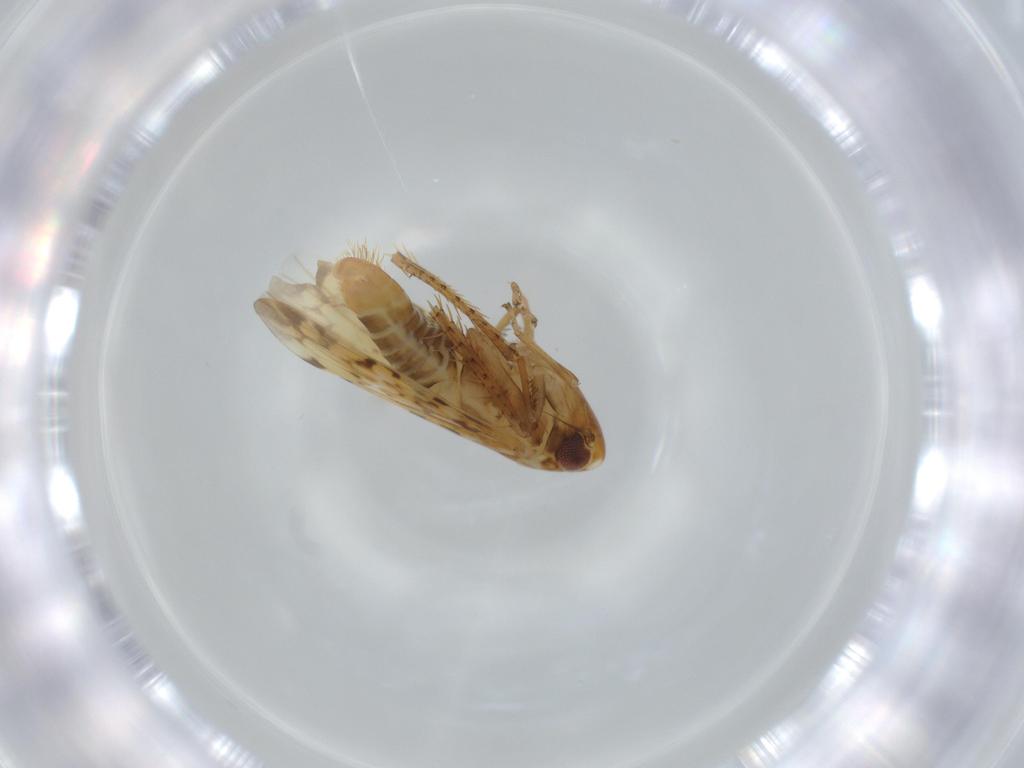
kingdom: Animalia
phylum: Arthropoda
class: Insecta
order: Hemiptera
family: Cicadellidae
